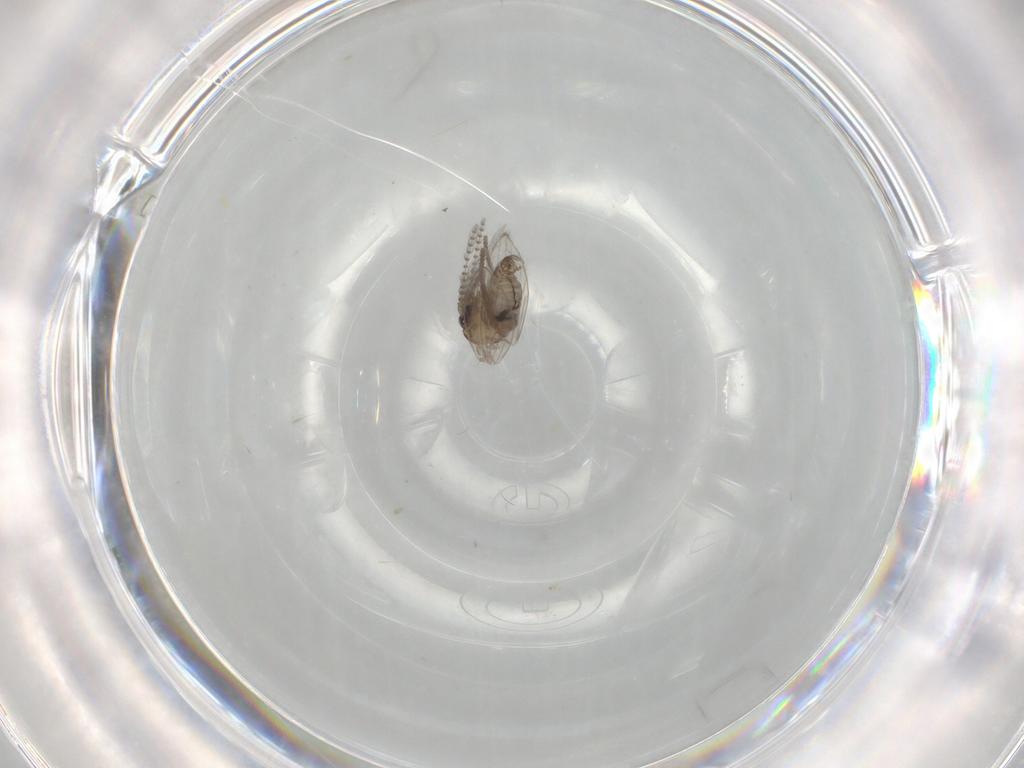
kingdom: Animalia
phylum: Arthropoda
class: Insecta
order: Diptera
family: Psychodidae
